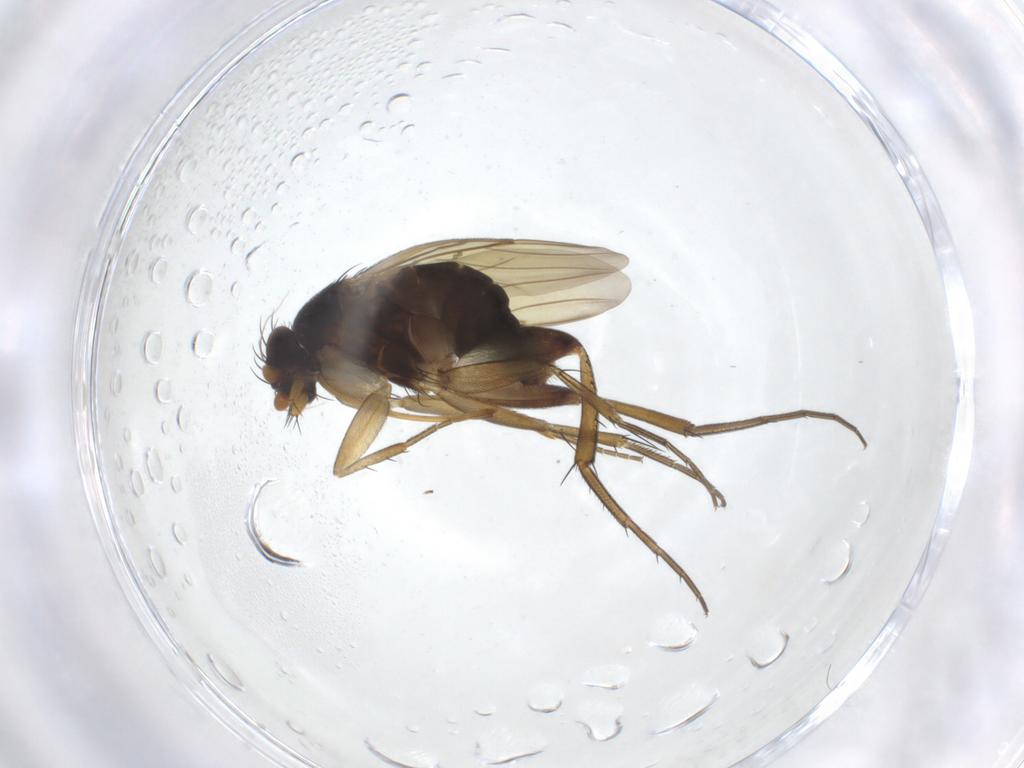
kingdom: Animalia
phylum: Arthropoda
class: Insecta
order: Diptera
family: Phoridae
